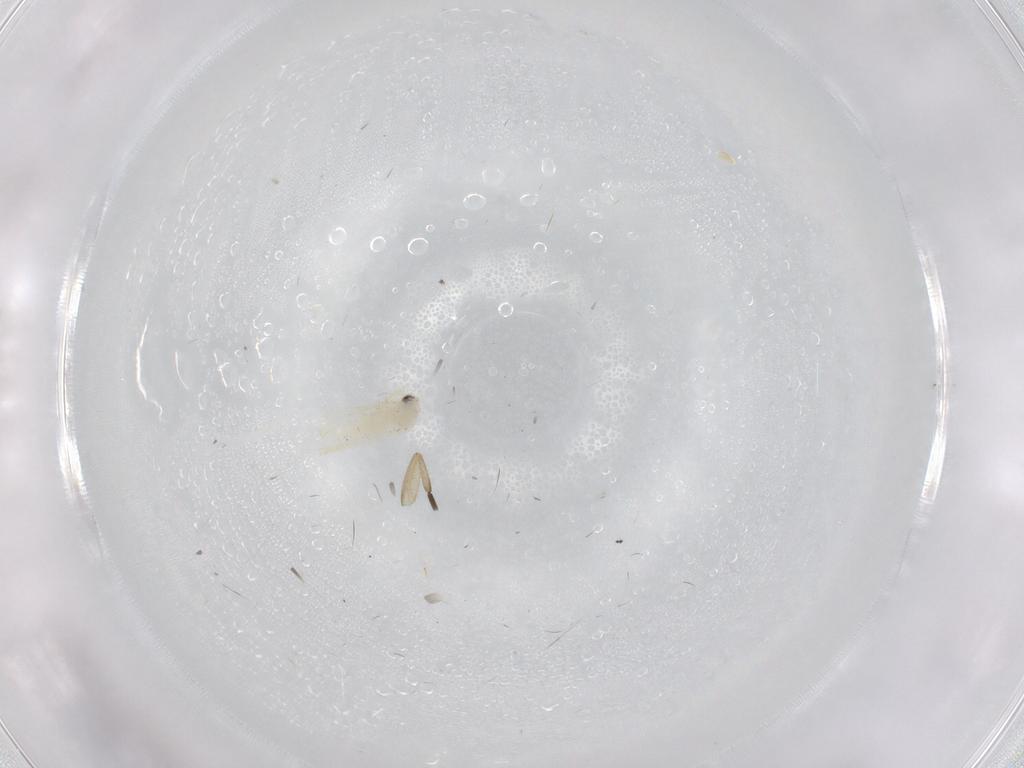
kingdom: Animalia
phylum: Arthropoda
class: Insecta
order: Hemiptera
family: Aleyrodidae
